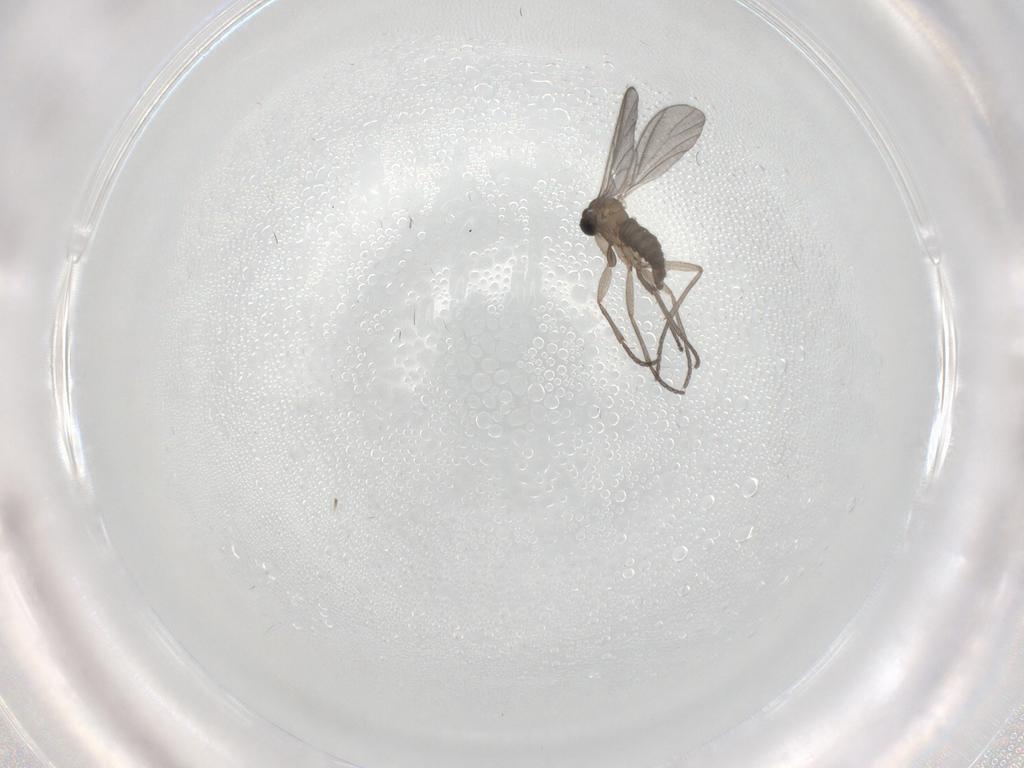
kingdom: Animalia
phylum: Arthropoda
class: Insecta
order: Diptera
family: Psychodidae
